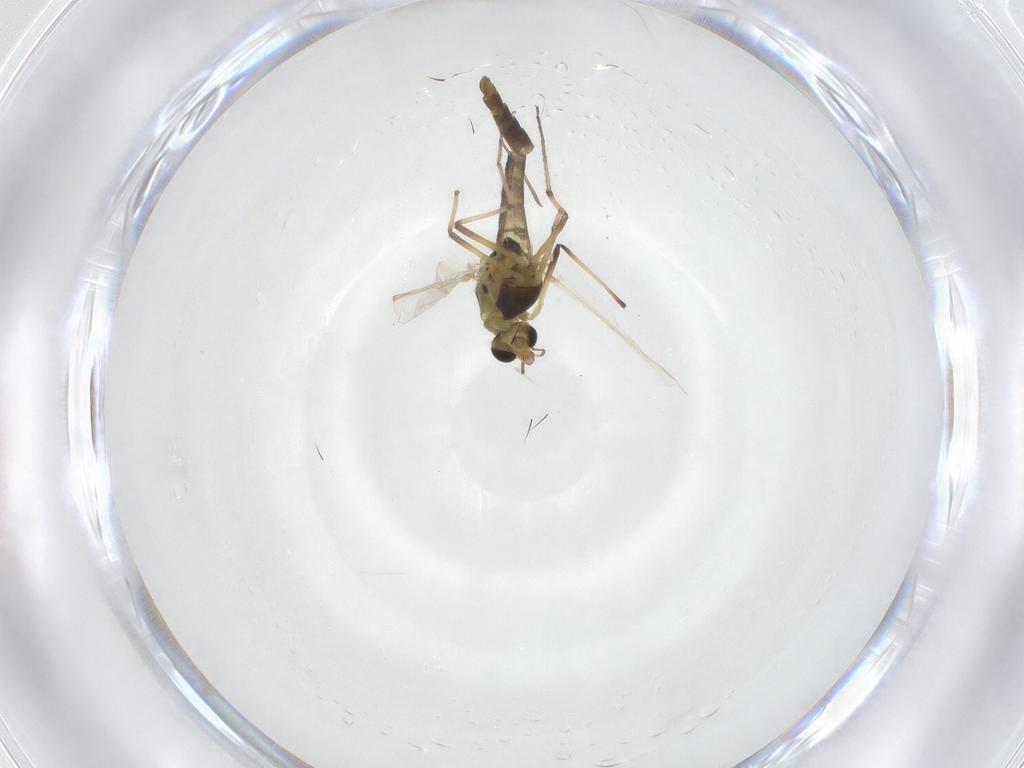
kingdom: Animalia
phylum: Arthropoda
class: Insecta
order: Diptera
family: Chironomidae
